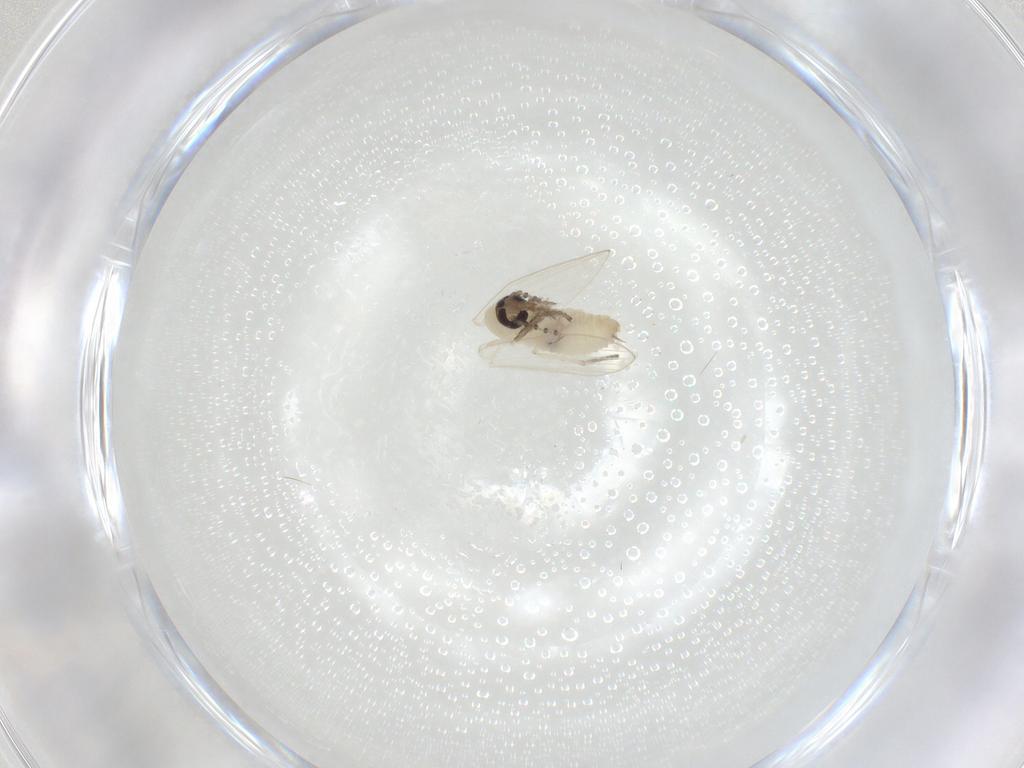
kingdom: Animalia
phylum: Arthropoda
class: Insecta
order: Diptera
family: Psychodidae
